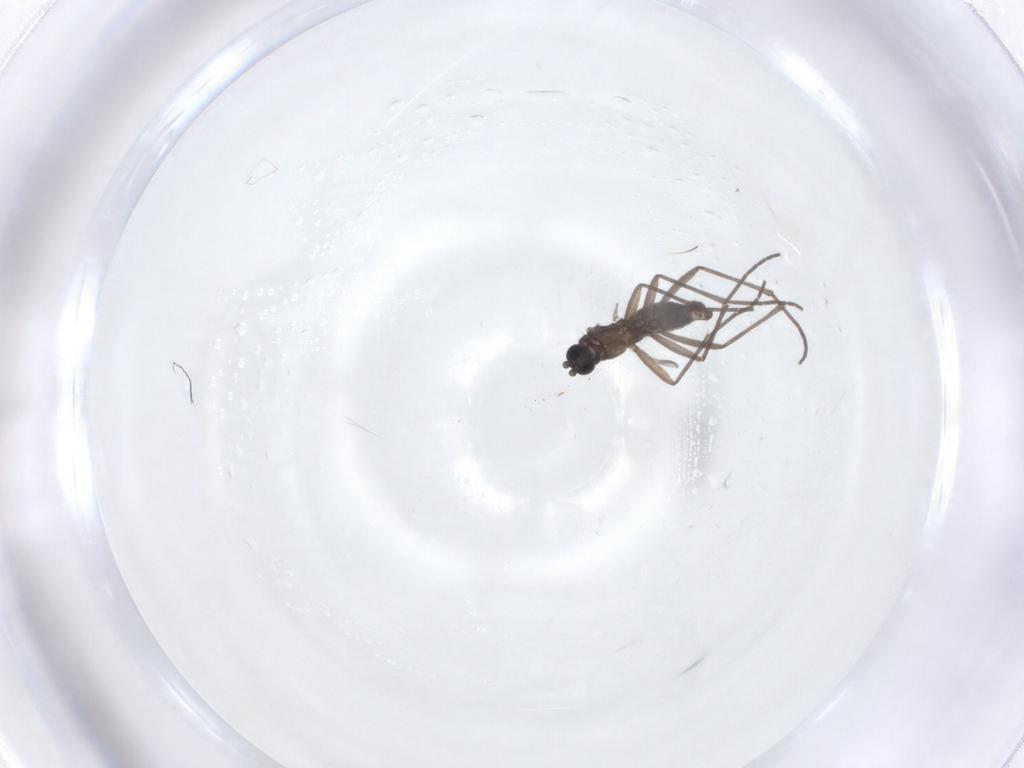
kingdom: Animalia
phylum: Arthropoda
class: Insecta
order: Diptera
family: Sciaridae
